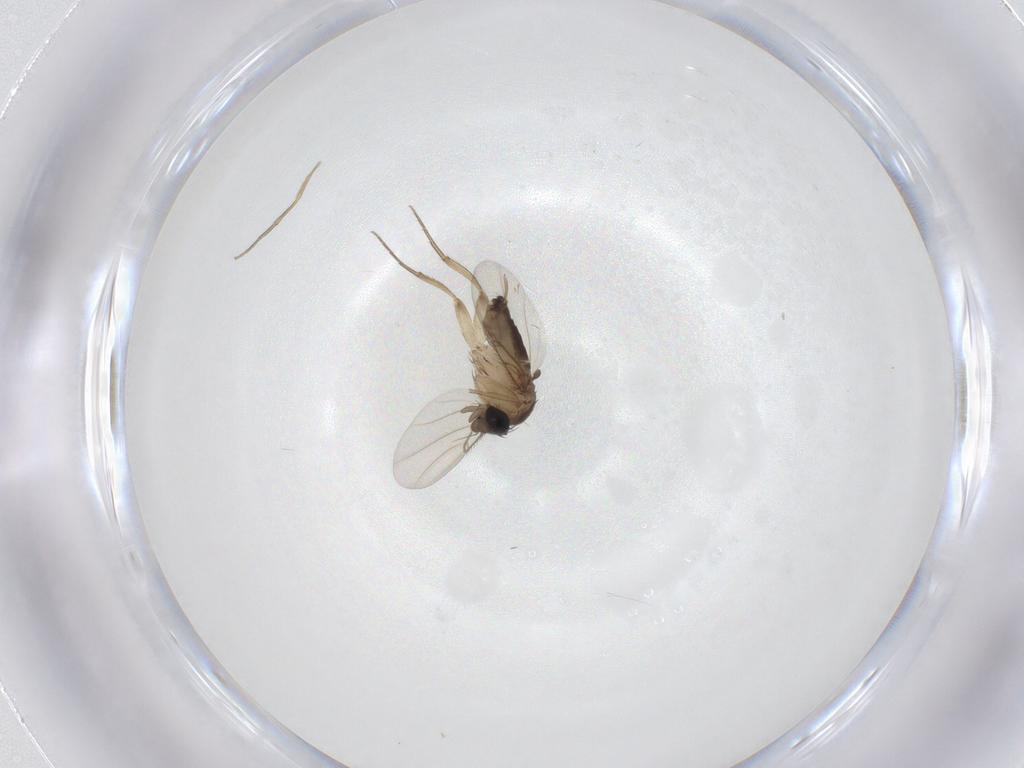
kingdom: Animalia
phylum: Arthropoda
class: Insecta
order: Diptera
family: Phoridae
